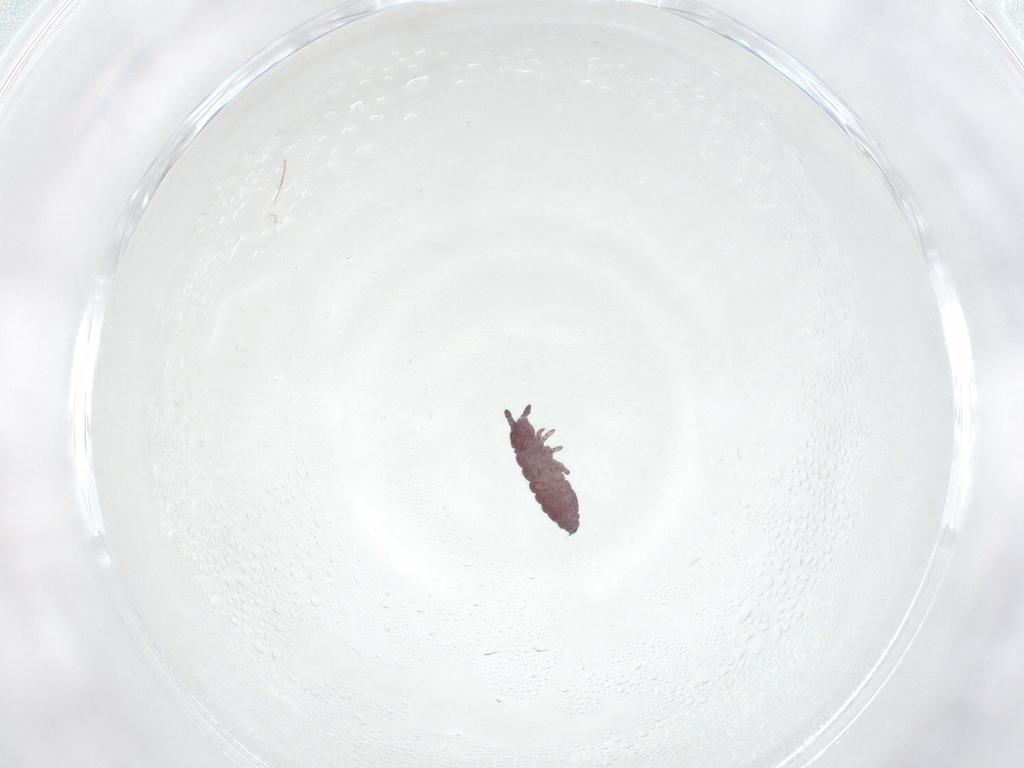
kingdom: Animalia
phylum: Arthropoda
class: Collembola
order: Poduromorpha
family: Hypogastruridae
